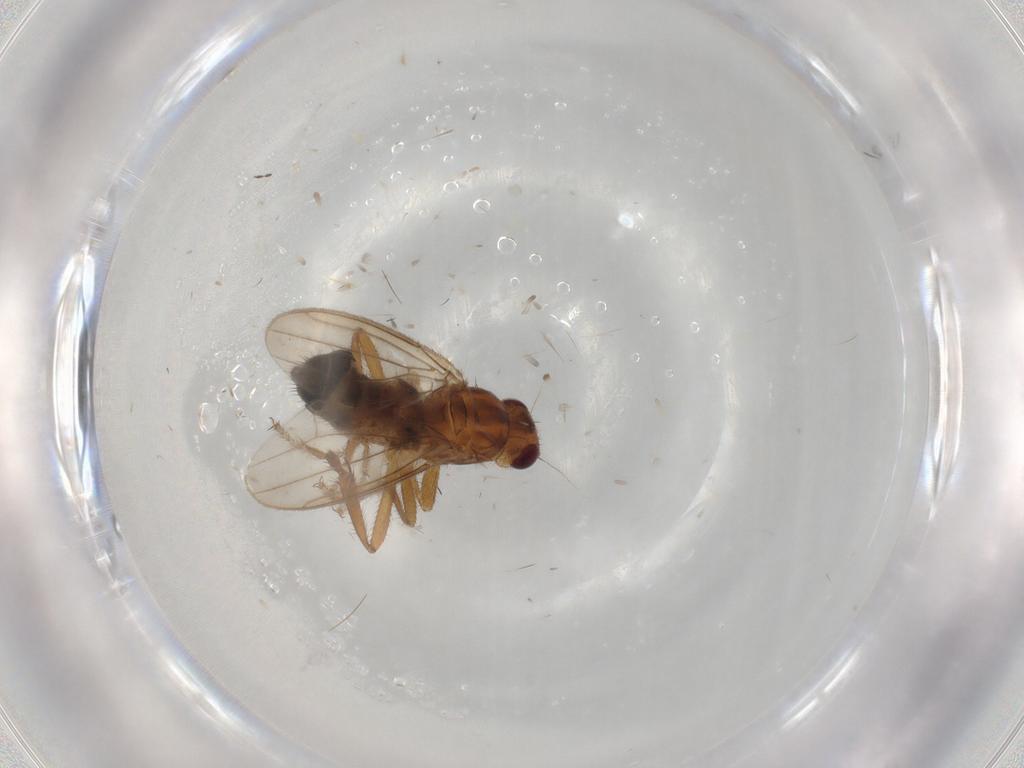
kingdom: Animalia
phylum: Arthropoda
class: Insecta
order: Diptera
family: Sphaeroceridae
